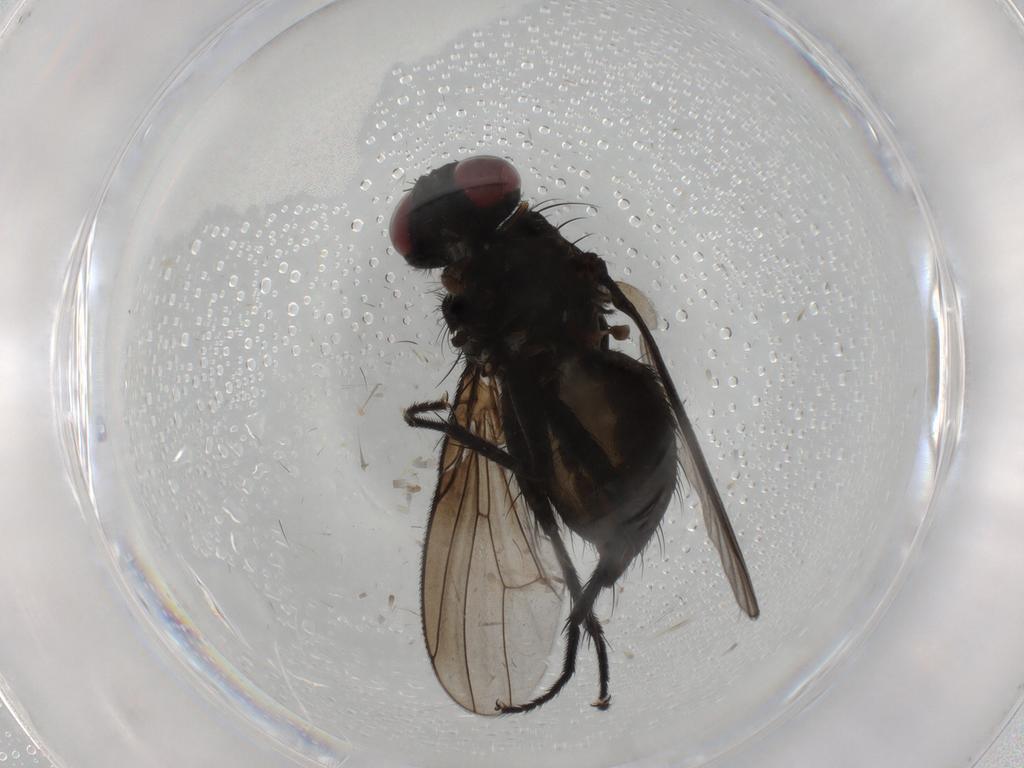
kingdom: Animalia
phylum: Arthropoda
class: Insecta
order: Diptera
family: Muscidae
